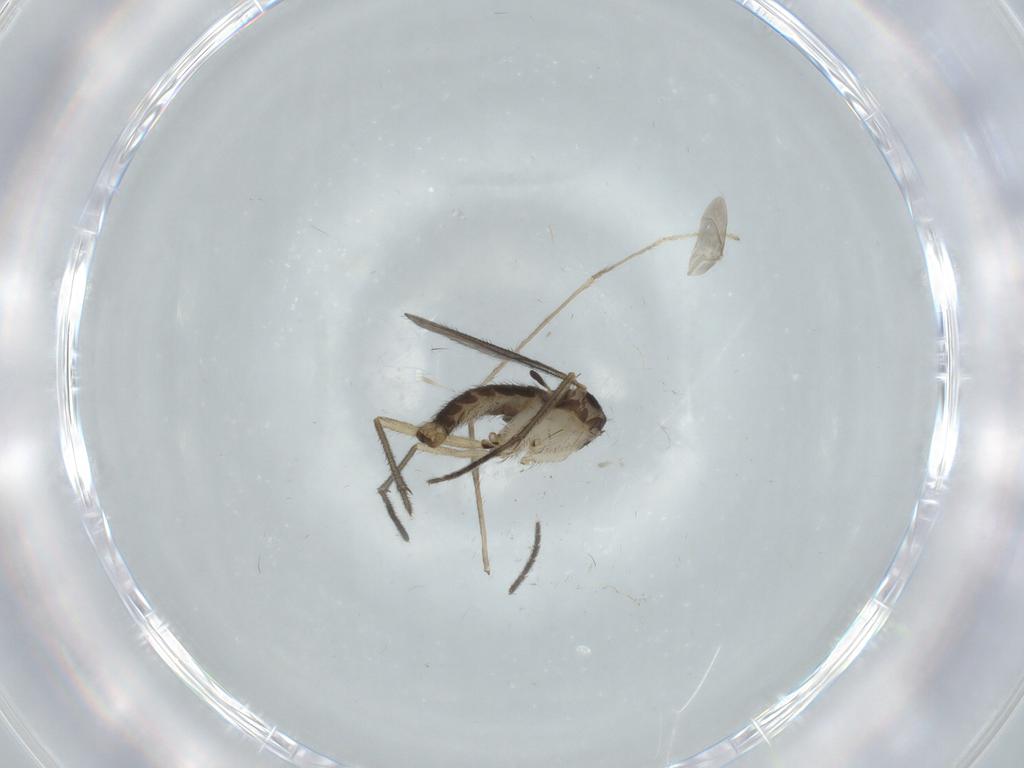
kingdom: Animalia
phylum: Arthropoda
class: Insecta
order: Diptera
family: Sciaridae
